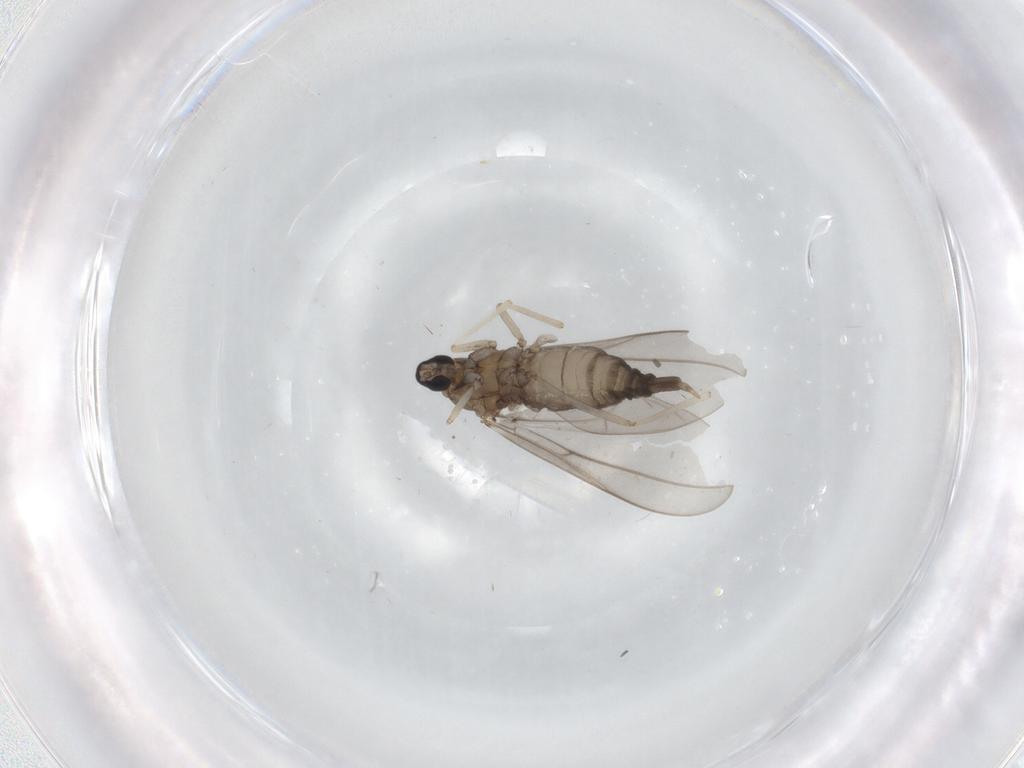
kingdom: Animalia
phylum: Arthropoda
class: Insecta
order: Diptera
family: Cecidomyiidae
